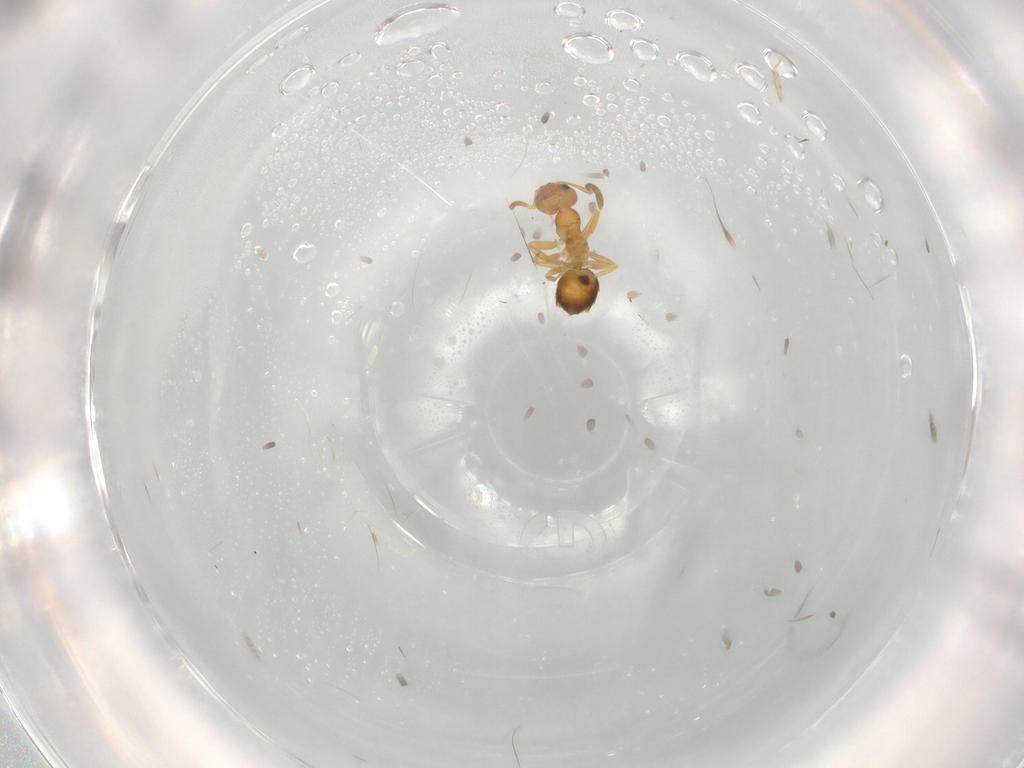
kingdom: Animalia
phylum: Arthropoda
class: Insecta
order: Hymenoptera
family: Formicidae
